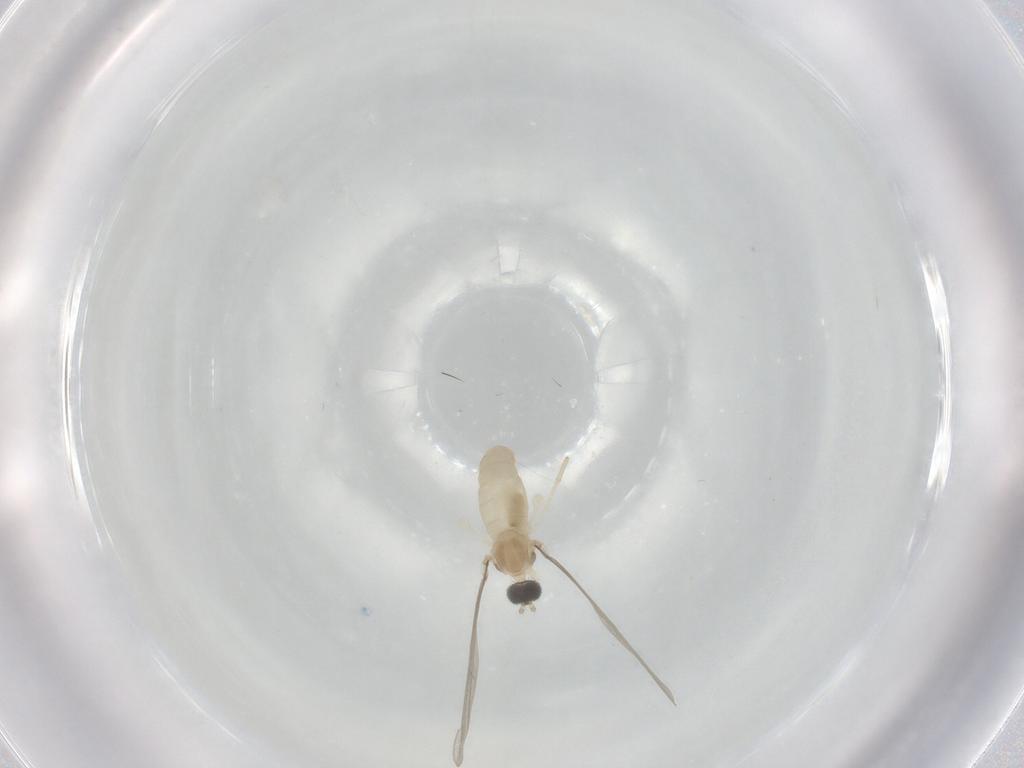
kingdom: Animalia
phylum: Arthropoda
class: Insecta
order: Diptera
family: Cecidomyiidae
